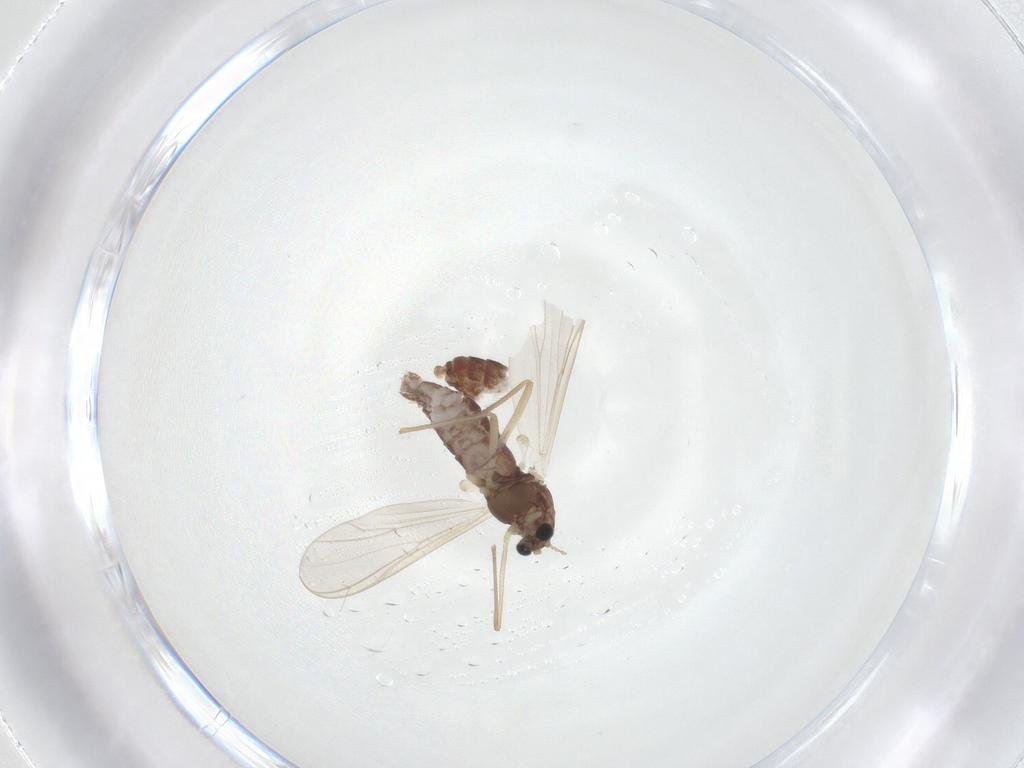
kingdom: Animalia
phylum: Arthropoda
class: Insecta
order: Diptera
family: Chironomidae
